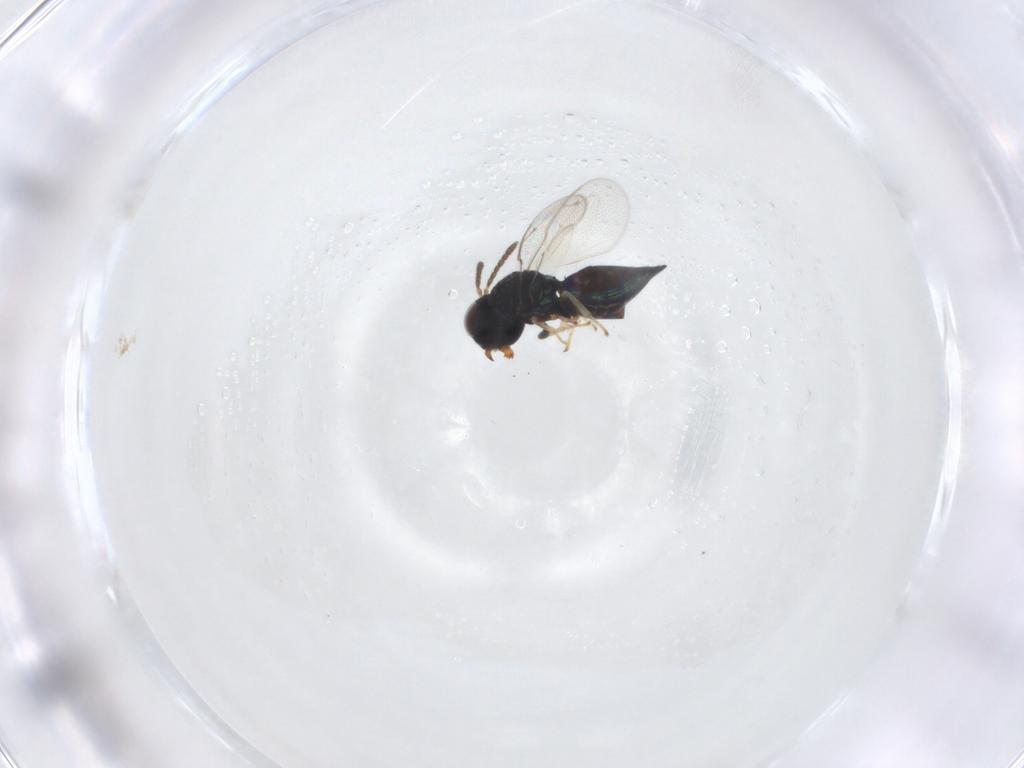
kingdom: Animalia
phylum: Arthropoda
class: Insecta
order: Hymenoptera
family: Pteromalidae
